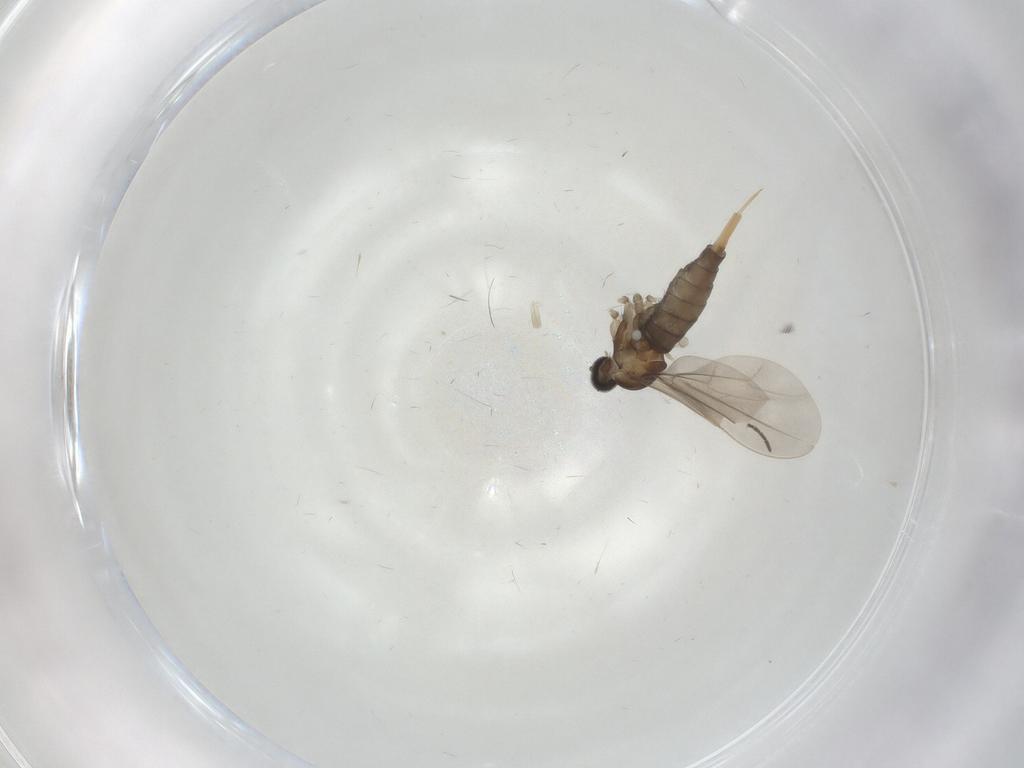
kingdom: Animalia
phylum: Arthropoda
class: Insecta
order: Diptera
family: Cecidomyiidae
